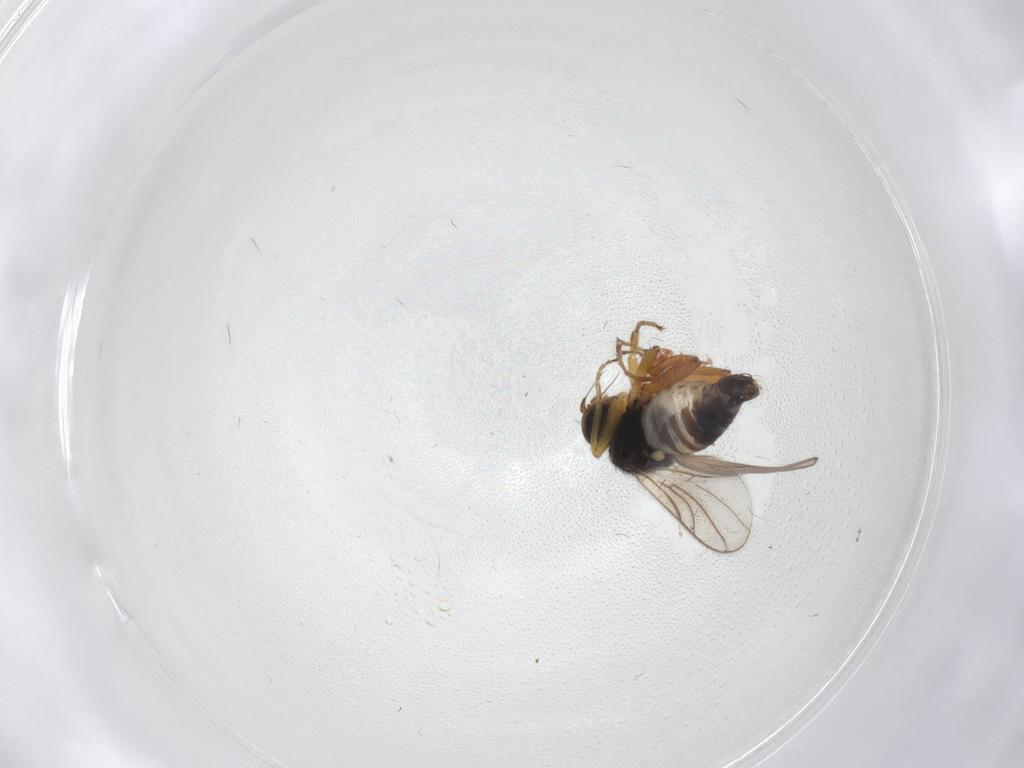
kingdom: Animalia
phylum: Arthropoda
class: Insecta
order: Diptera
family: Hybotidae
